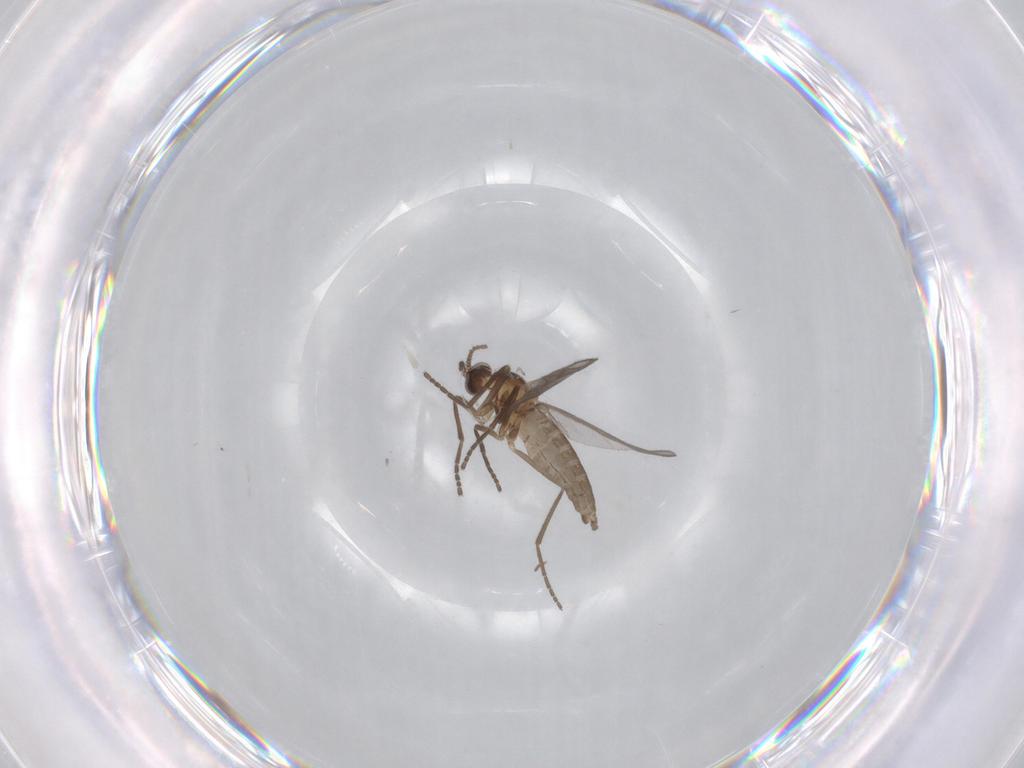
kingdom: Animalia
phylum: Arthropoda
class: Insecta
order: Diptera
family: Cecidomyiidae
